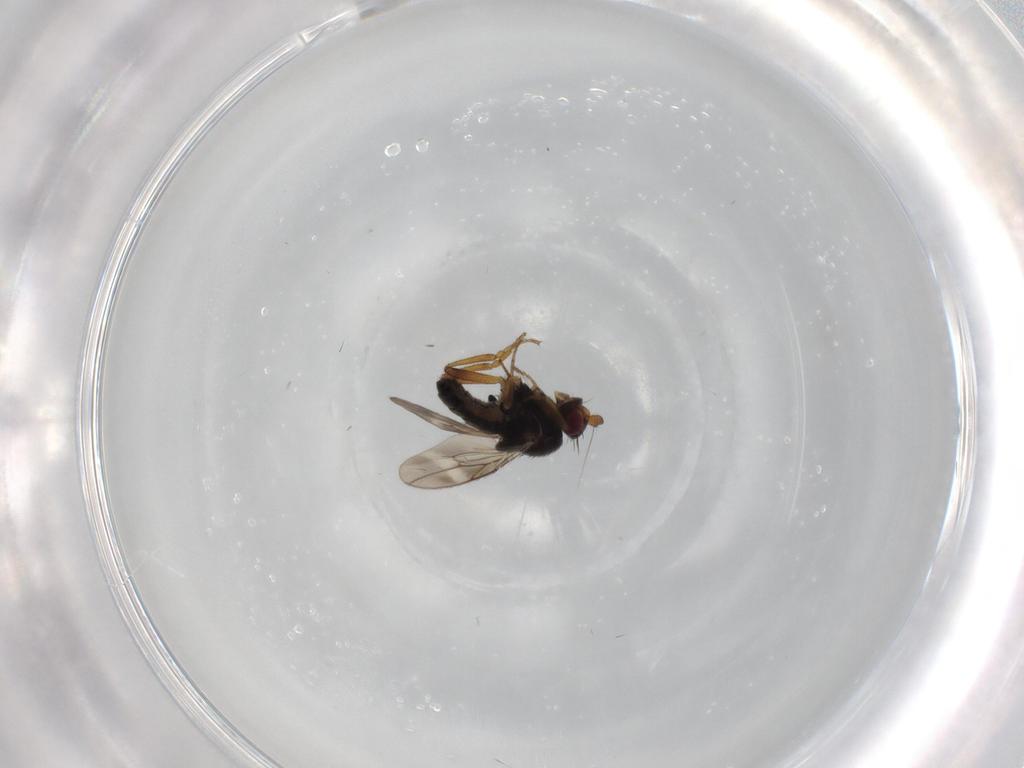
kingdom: Animalia
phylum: Arthropoda
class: Insecta
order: Diptera
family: Sphaeroceridae
